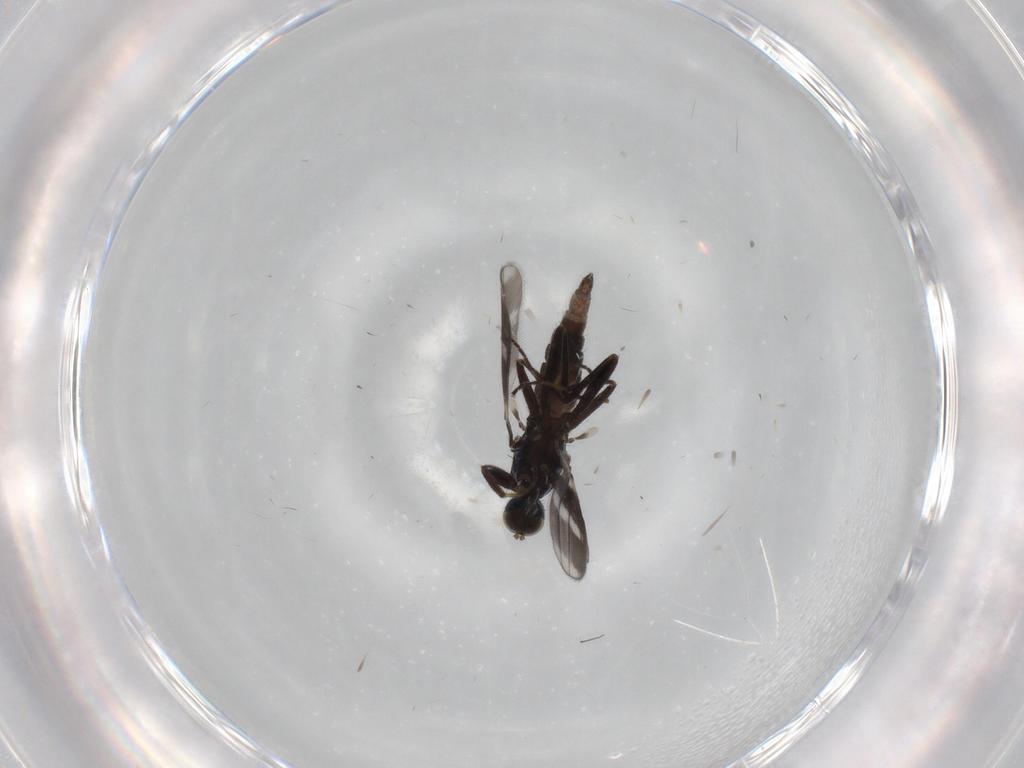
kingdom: Animalia
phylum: Arthropoda
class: Insecta
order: Diptera
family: Hybotidae
